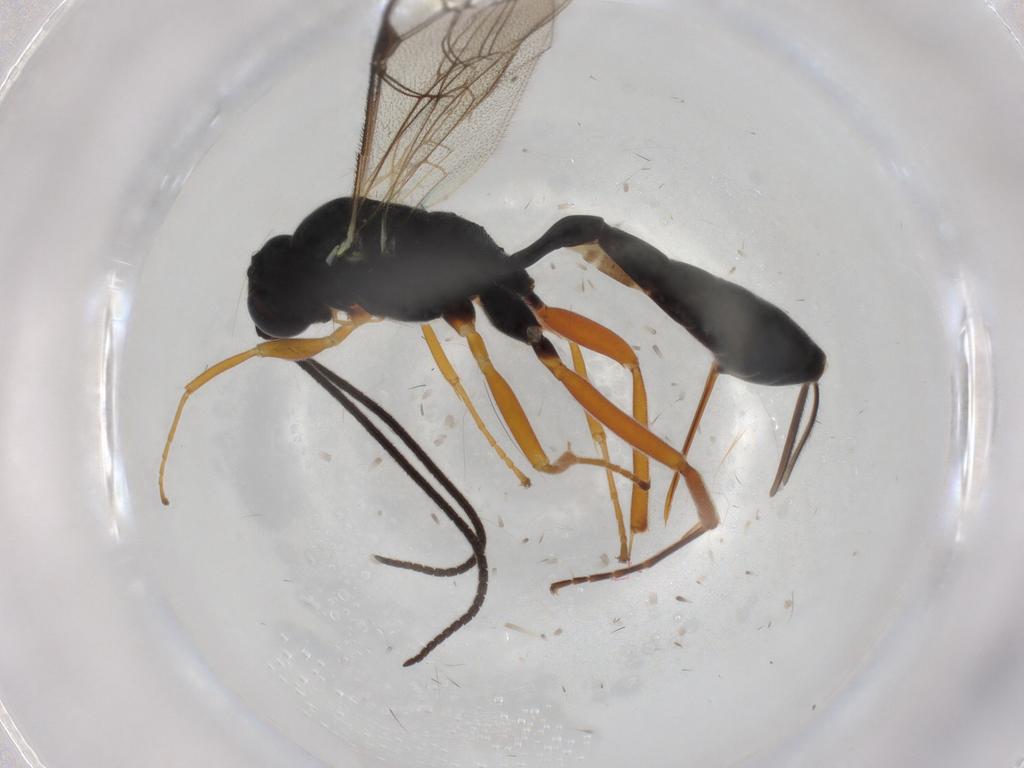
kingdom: Animalia
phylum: Arthropoda
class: Insecta
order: Hymenoptera
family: Ichneumonidae
